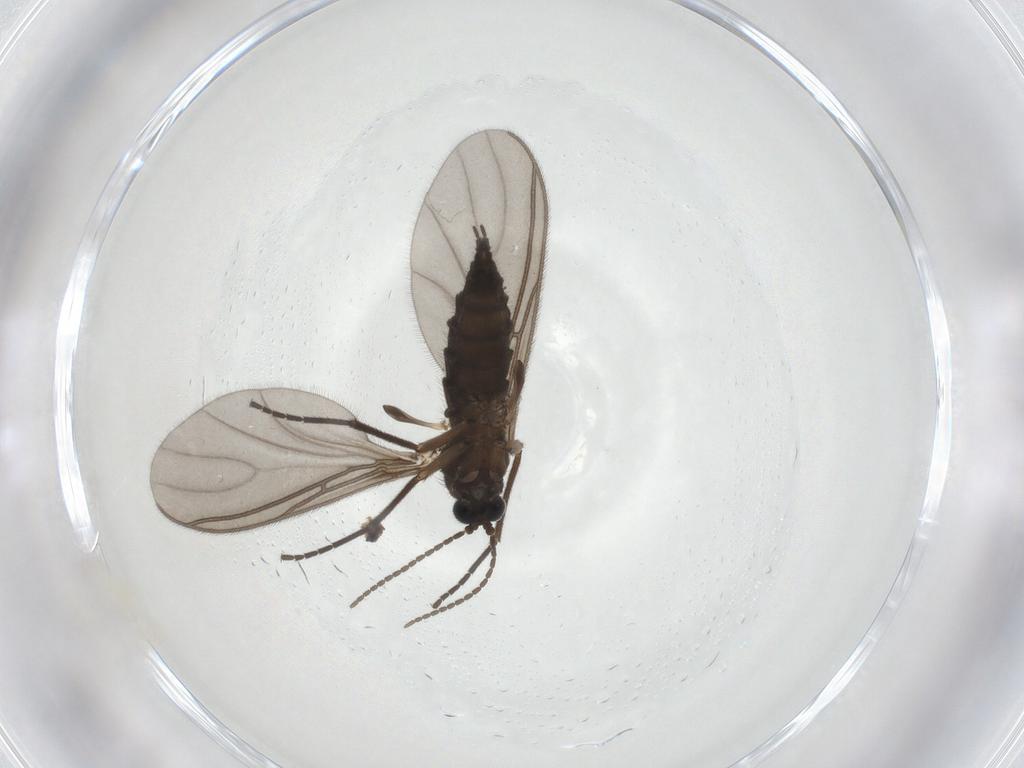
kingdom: Animalia
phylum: Arthropoda
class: Insecta
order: Diptera
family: Sciaridae
